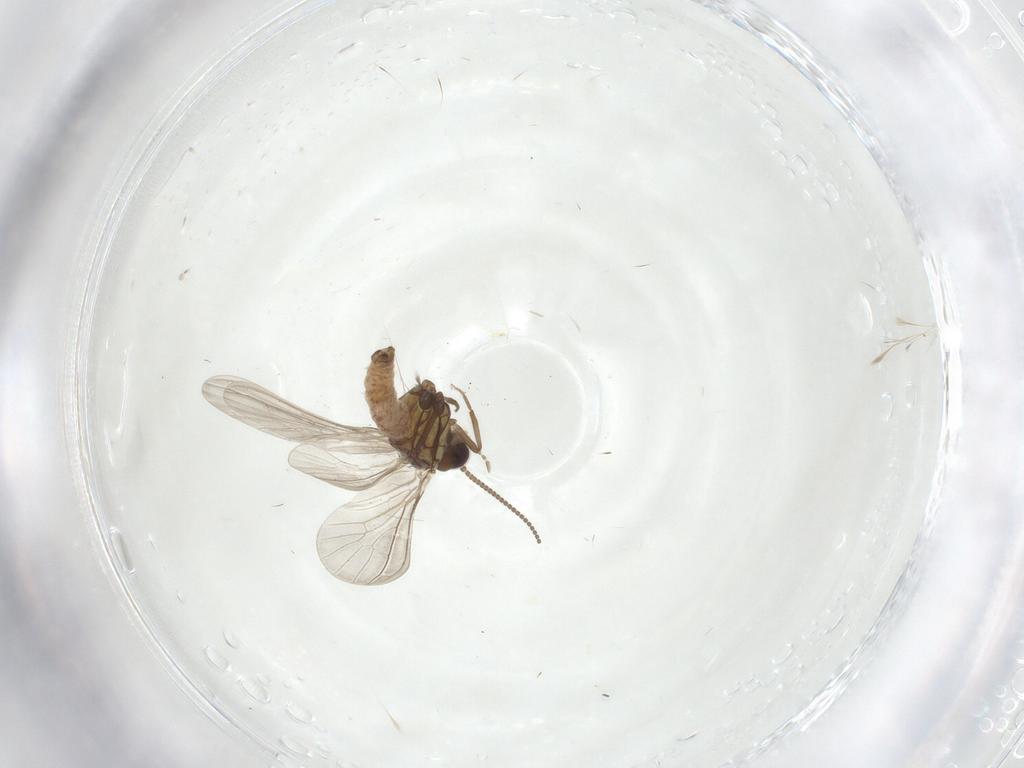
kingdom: Animalia
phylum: Arthropoda
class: Insecta
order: Neuroptera
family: Coniopterygidae
